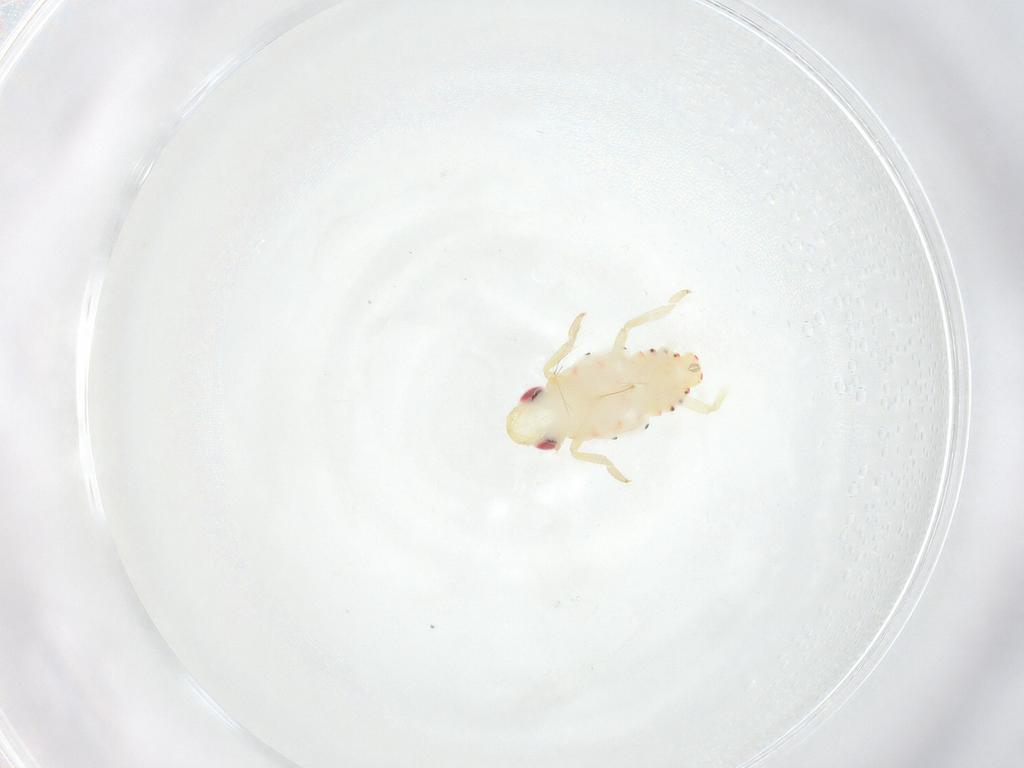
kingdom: Animalia
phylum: Arthropoda
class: Insecta
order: Hemiptera
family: Tropiduchidae
